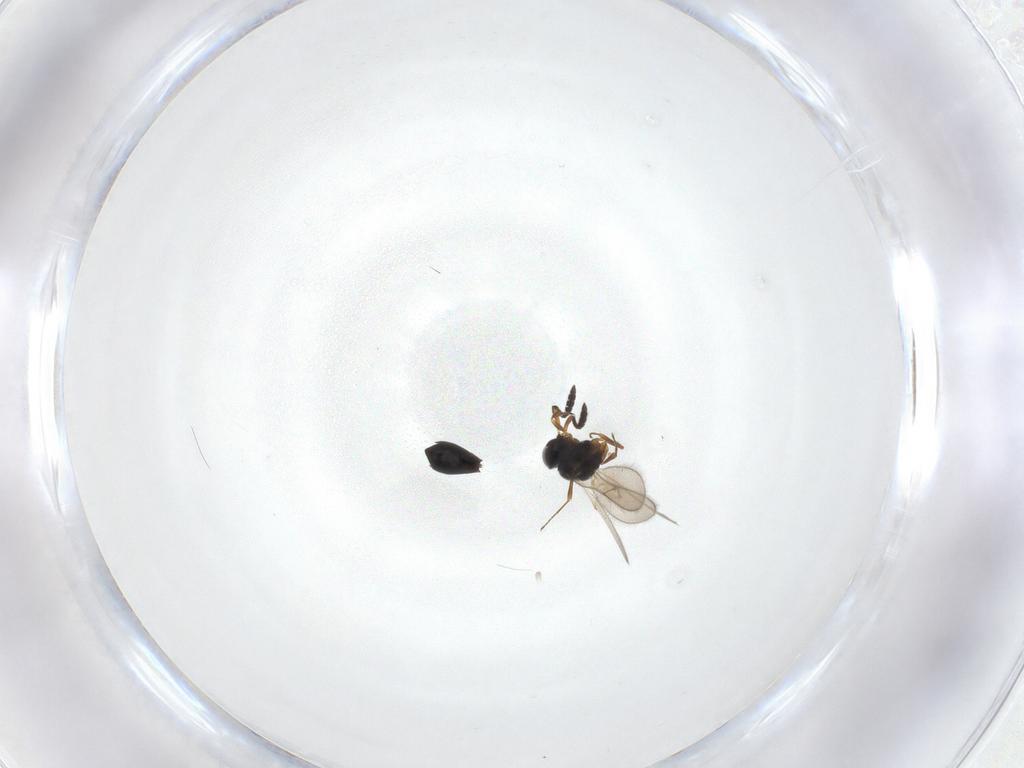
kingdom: Animalia
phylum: Arthropoda
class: Insecta
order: Hymenoptera
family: Scelionidae
